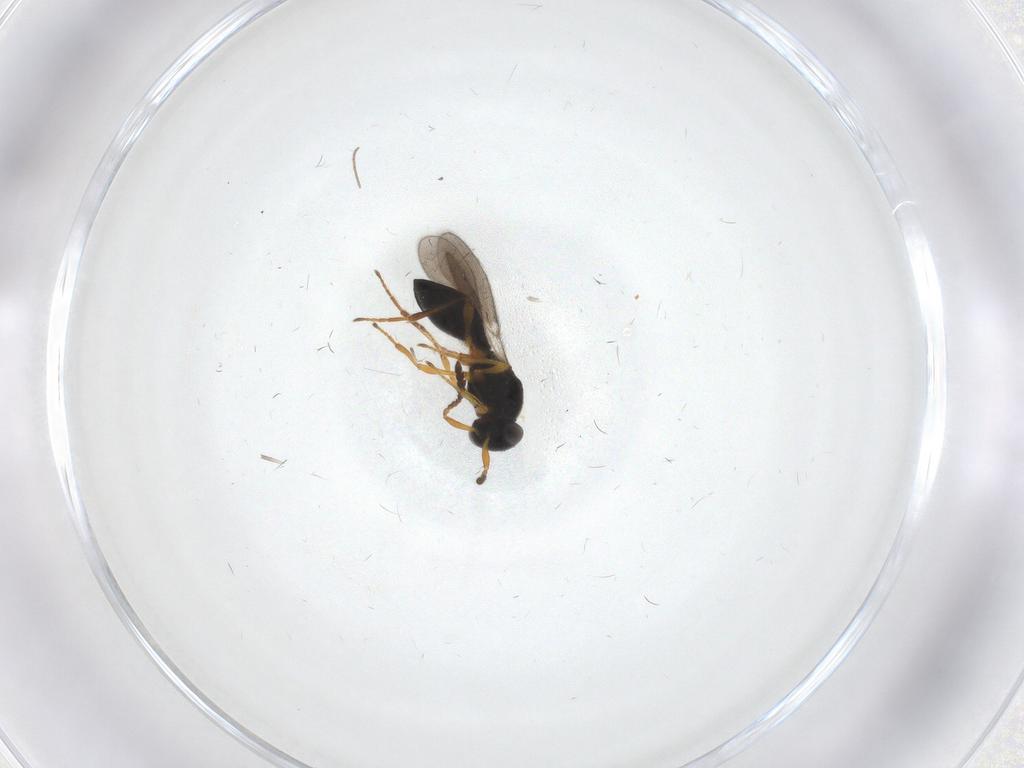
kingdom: Animalia
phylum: Arthropoda
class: Insecta
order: Hymenoptera
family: Platygastridae
